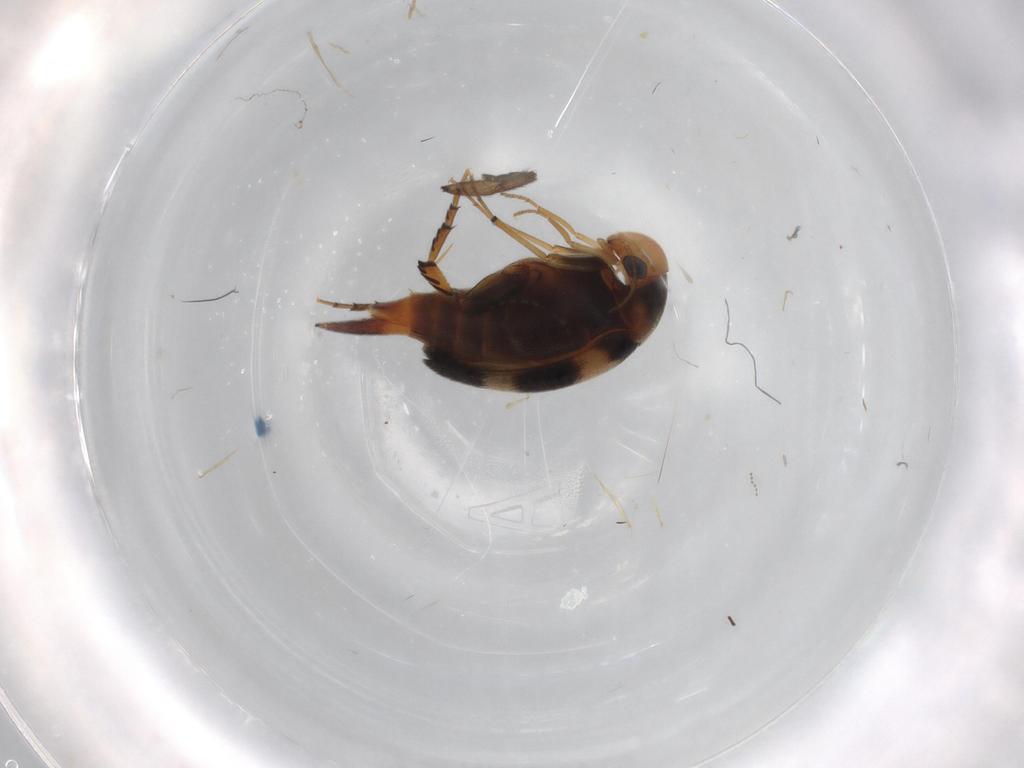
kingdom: Animalia
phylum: Arthropoda
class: Insecta
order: Coleoptera
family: Mordellidae
